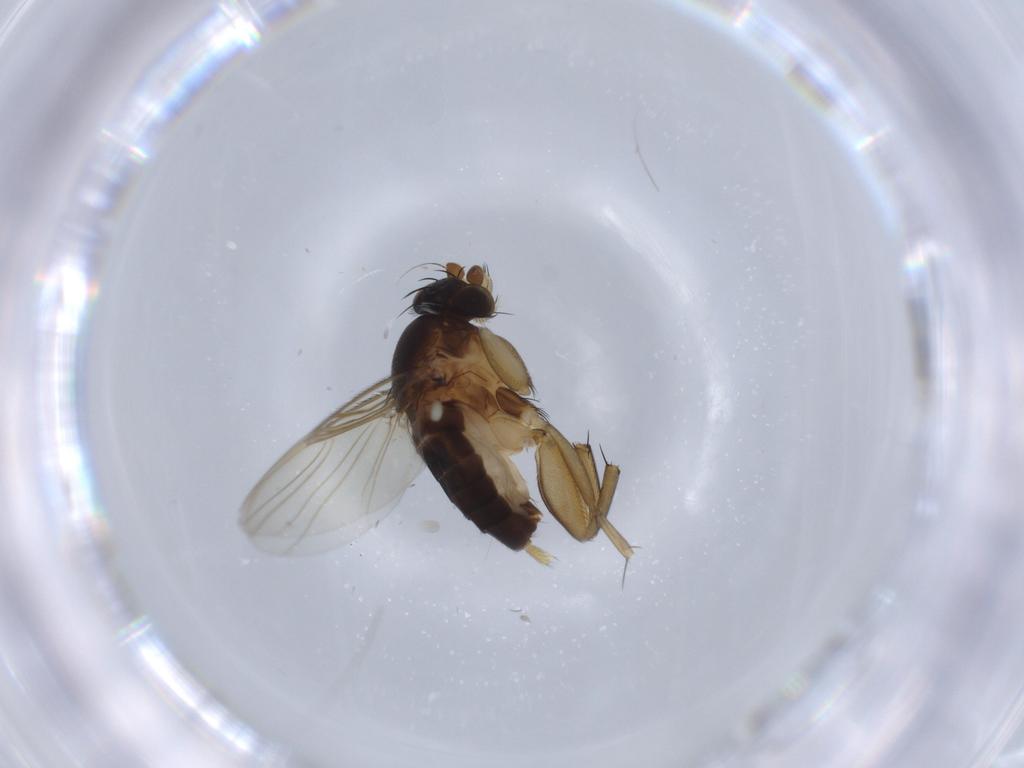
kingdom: Animalia
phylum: Arthropoda
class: Insecta
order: Diptera
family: Phoridae
